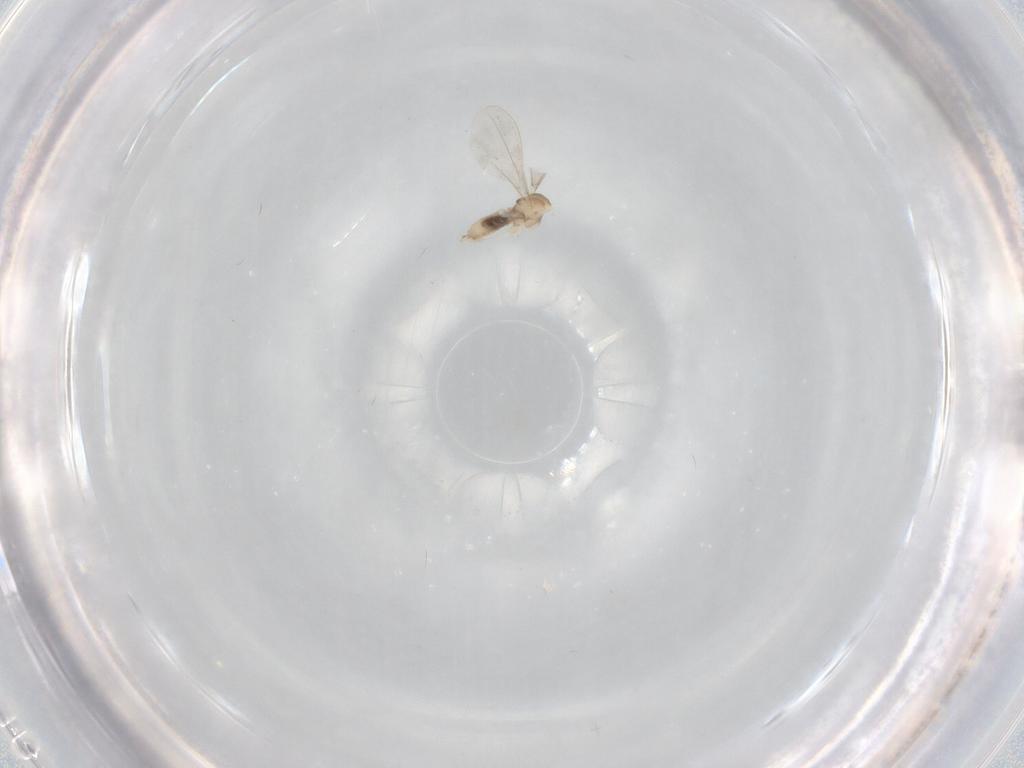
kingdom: Animalia
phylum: Arthropoda
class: Insecta
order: Diptera
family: Cecidomyiidae
